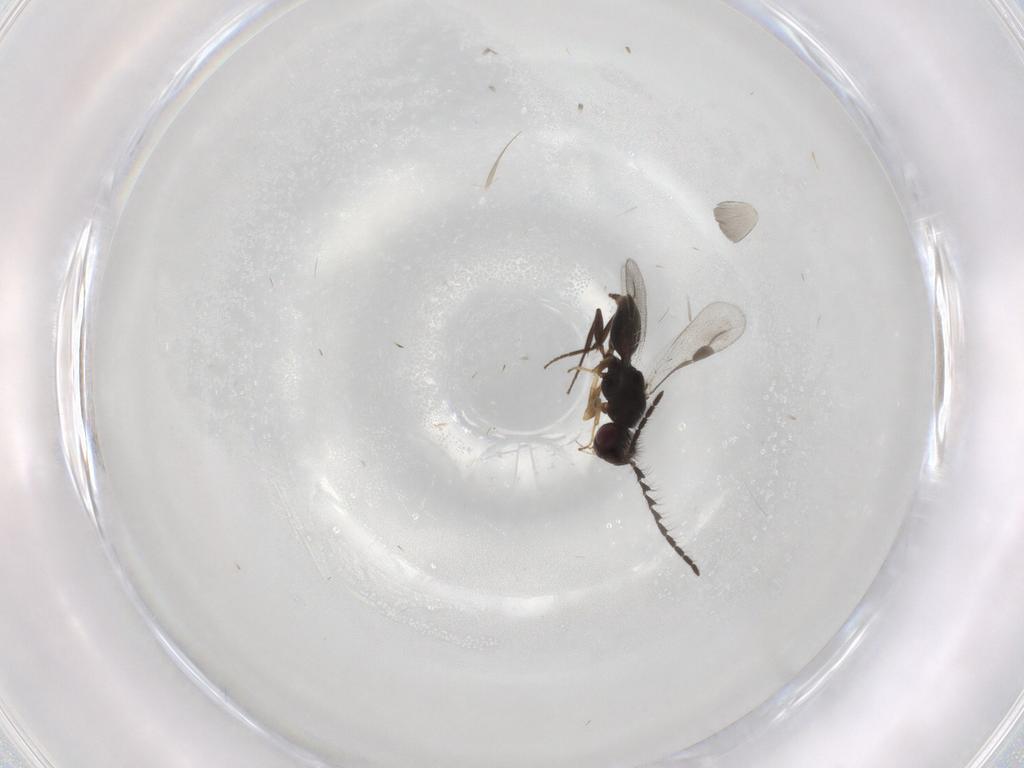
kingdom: Animalia
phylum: Arthropoda
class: Insecta
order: Hymenoptera
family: Megaspilidae
